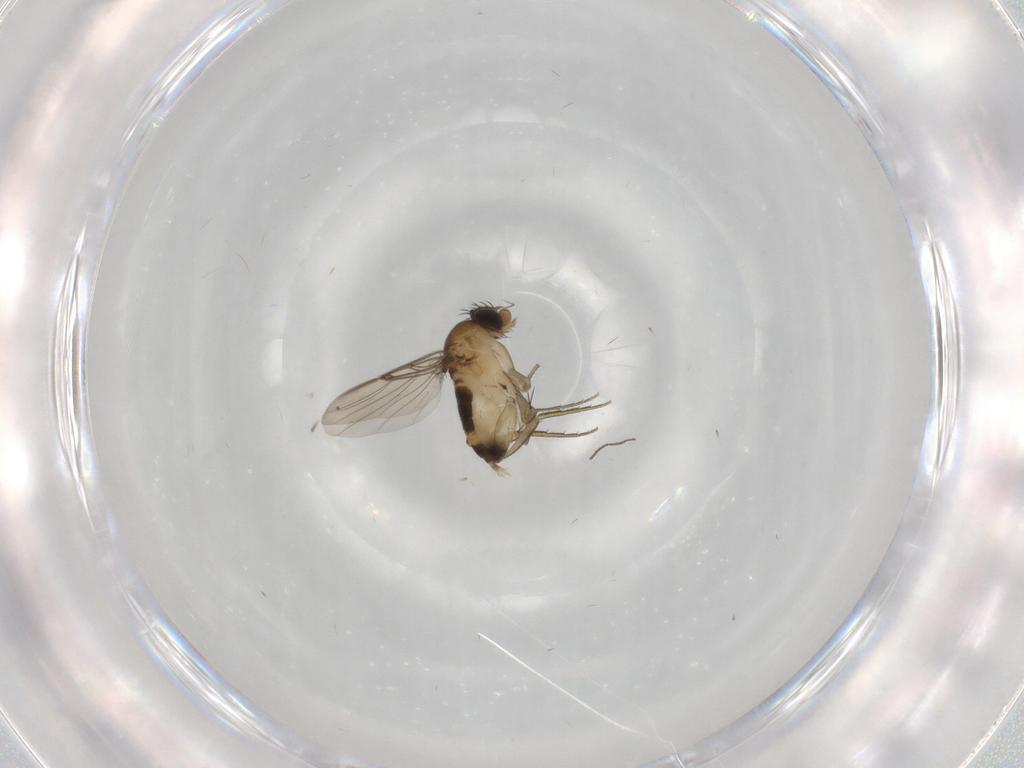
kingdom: Animalia
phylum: Arthropoda
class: Insecta
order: Diptera
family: Phoridae
